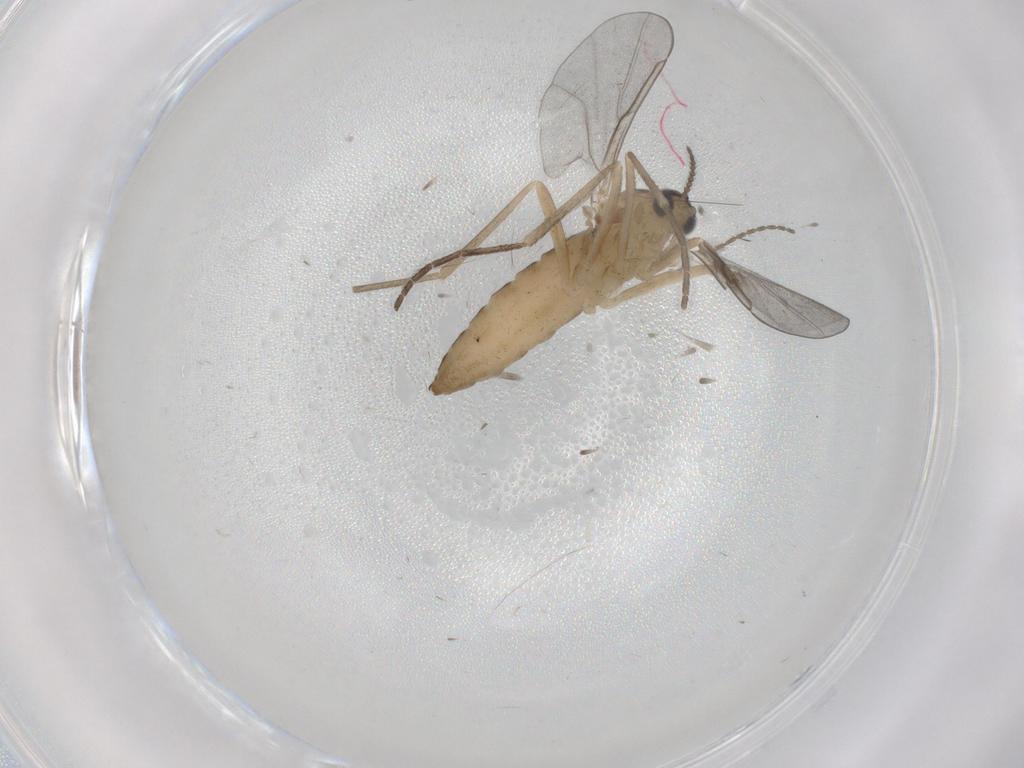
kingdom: Animalia
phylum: Arthropoda
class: Insecta
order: Diptera
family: Cecidomyiidae
